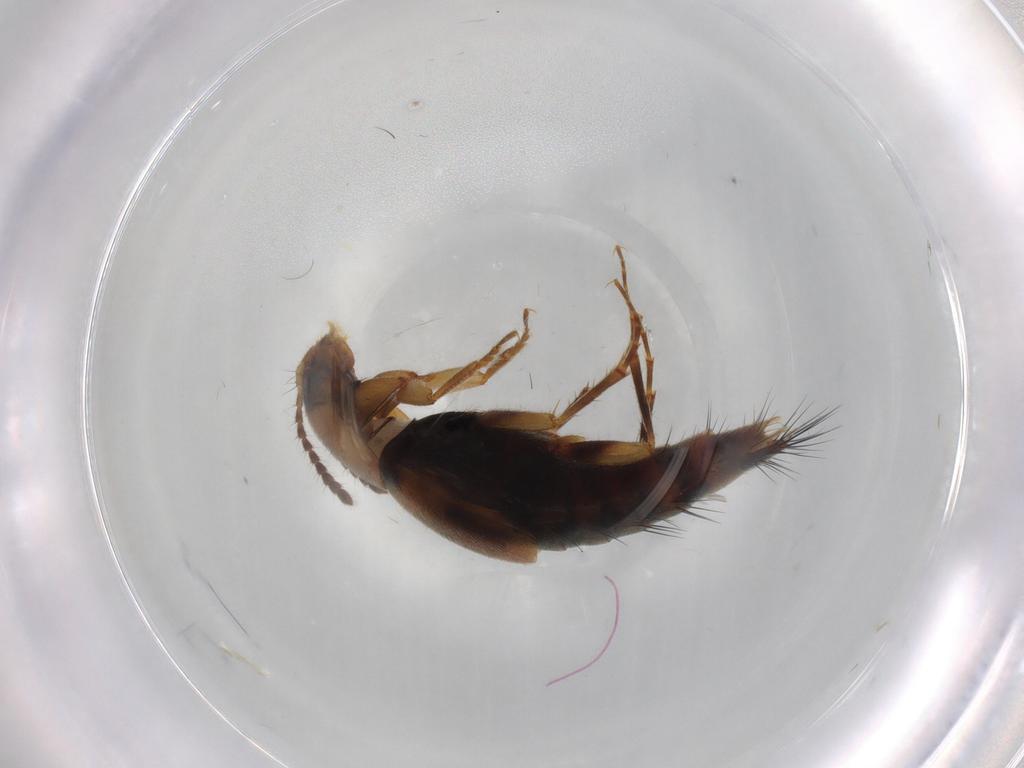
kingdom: Animalia
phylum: Arthropoda
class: Insecta
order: Coleoptera
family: Staphylinidae
